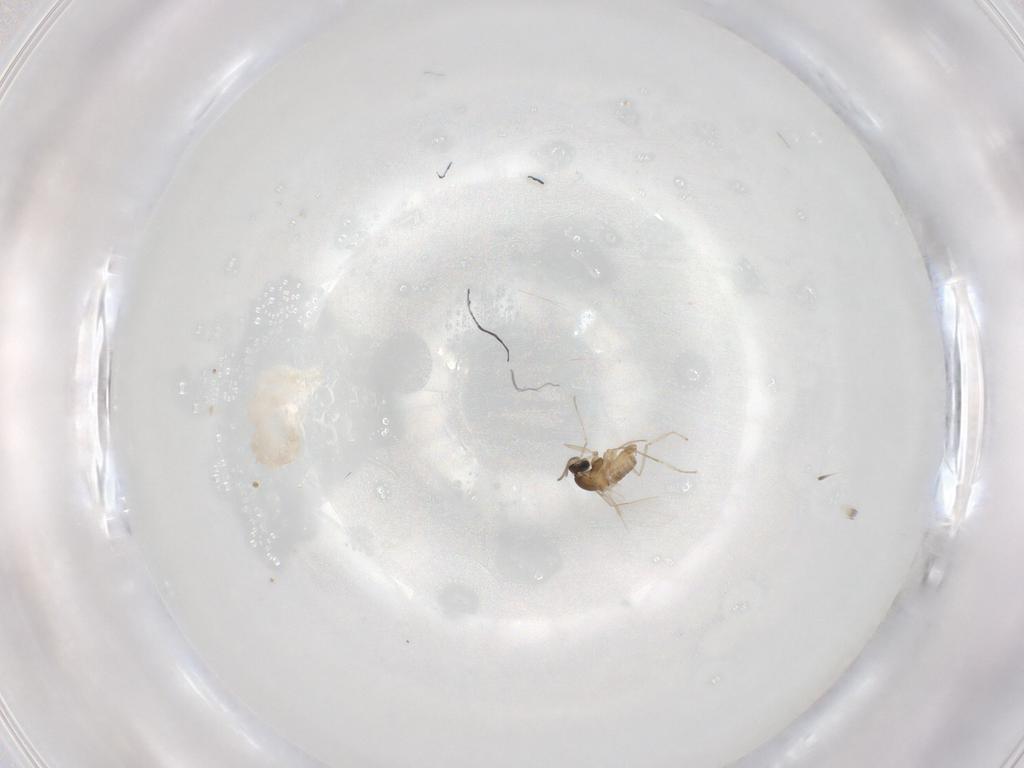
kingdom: Animalia
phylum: Arthropoda
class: Insecta
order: Diptera
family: Cecidomyiidae
